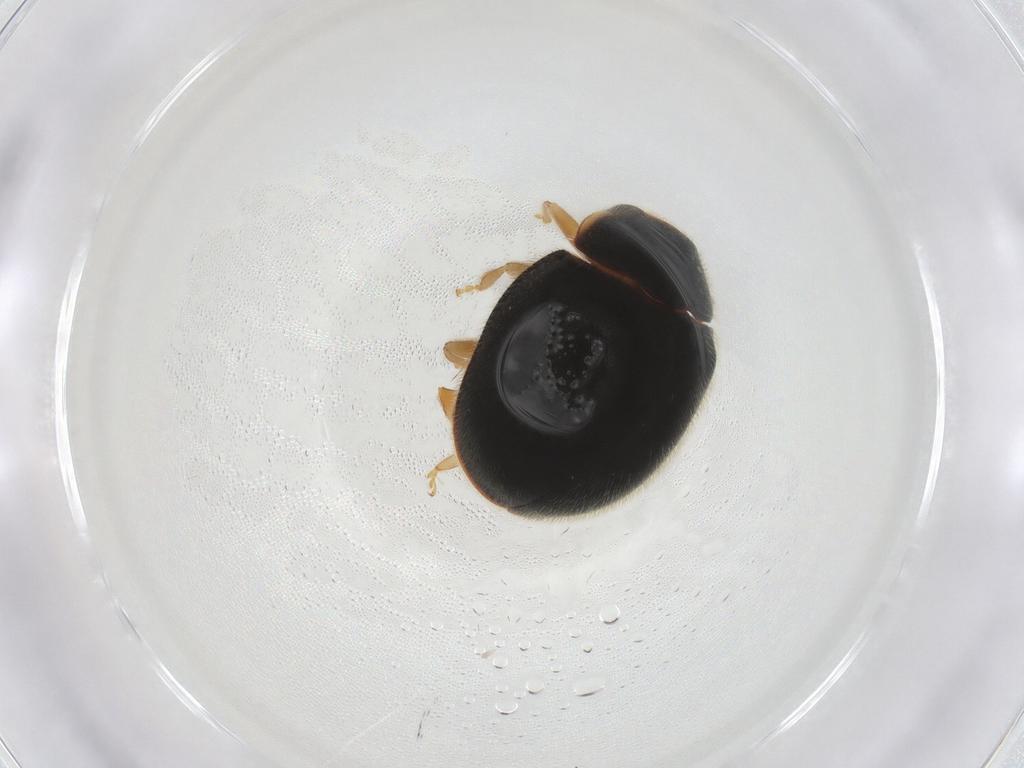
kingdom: Animalia
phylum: Arthropoda
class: Insecta
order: Coleoptera
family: Coccinellidae
